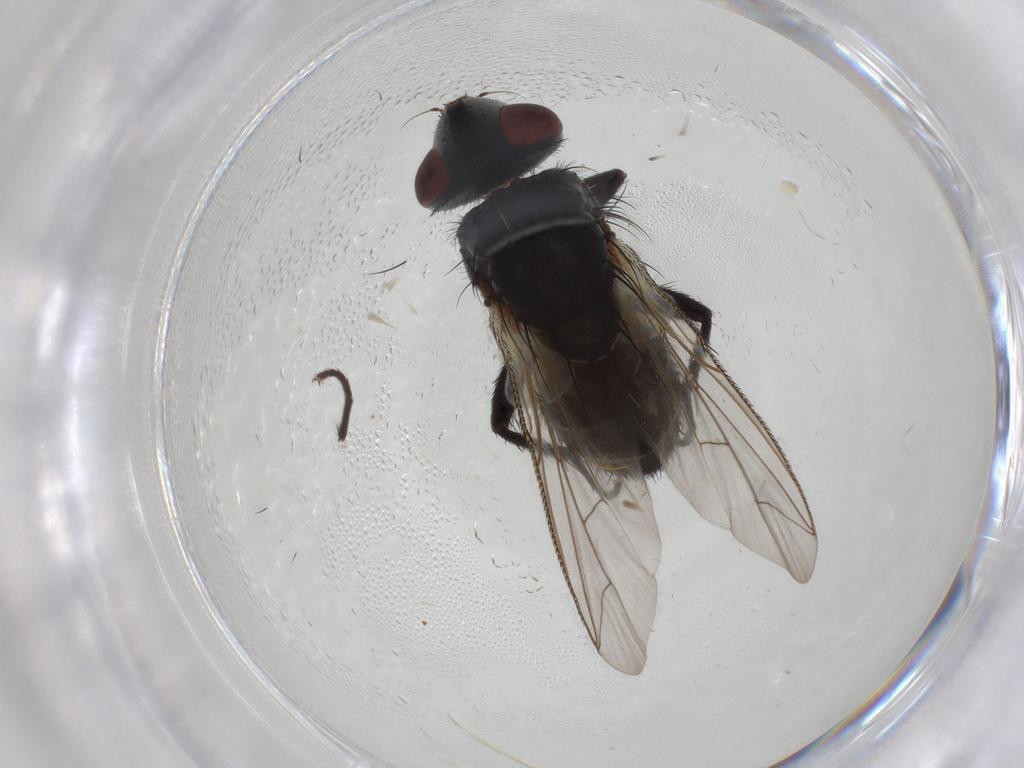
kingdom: Animalia
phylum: Arthropoda
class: Insecta
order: Diptera
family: Sarcophagidae
